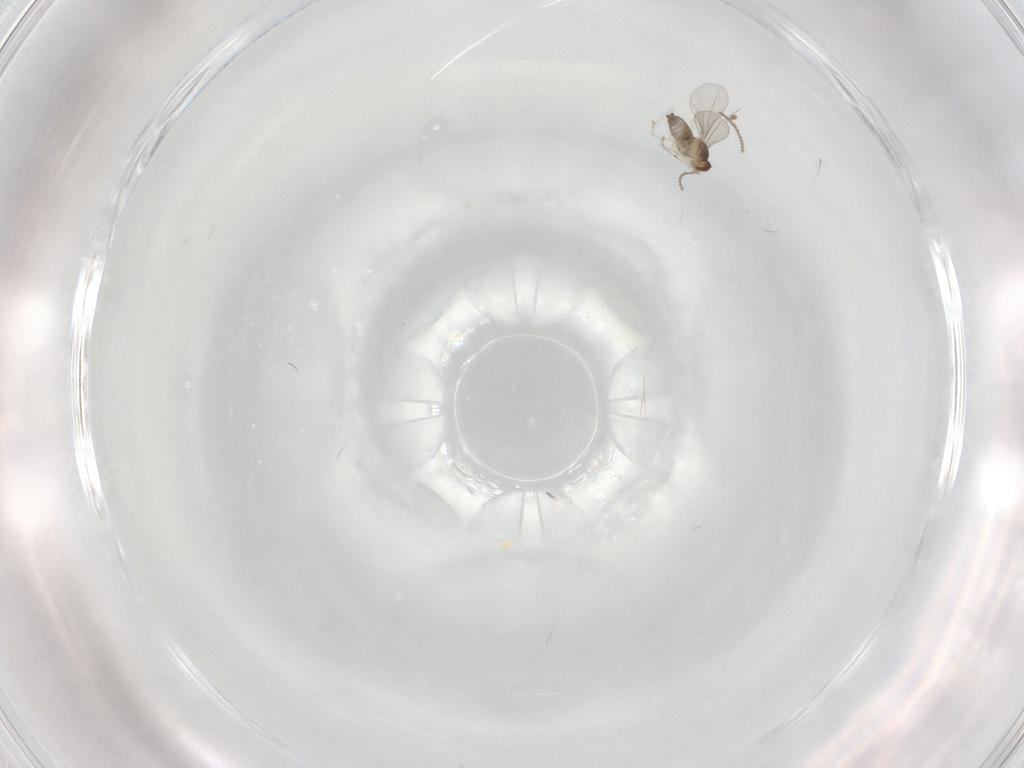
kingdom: Animalia
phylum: Arthropoda
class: Insecta
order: Diptera
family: Cecidomyiidae
